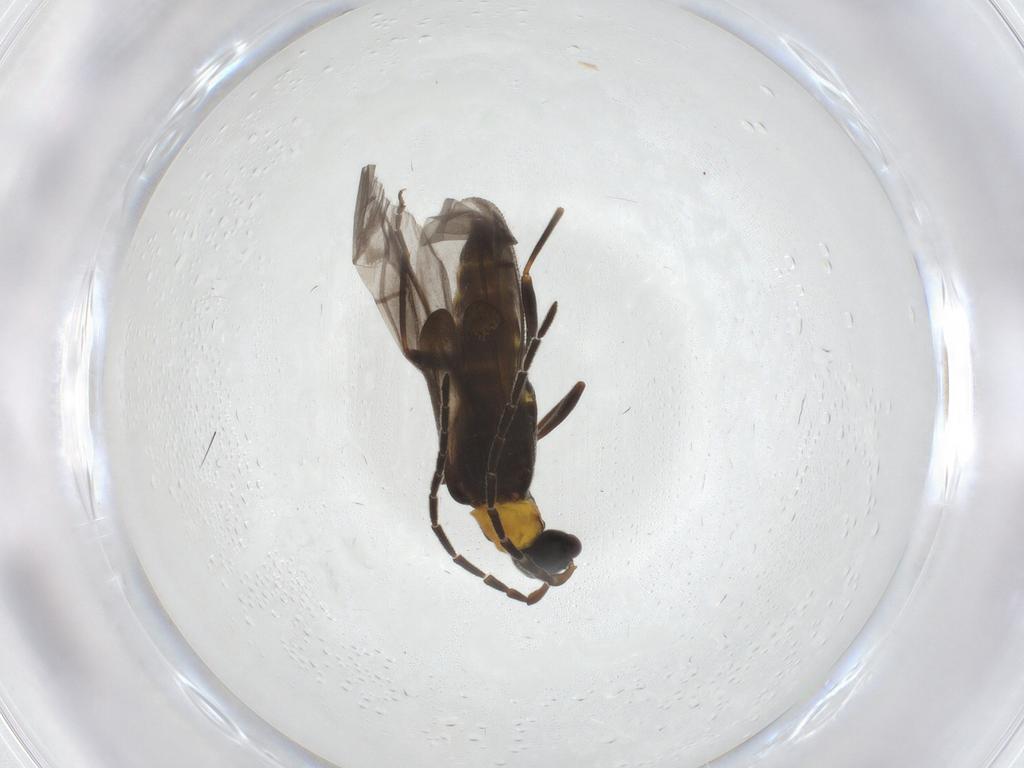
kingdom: Animalia
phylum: Arthropoda
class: Insecta
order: Coleoptera
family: Cantharidae
